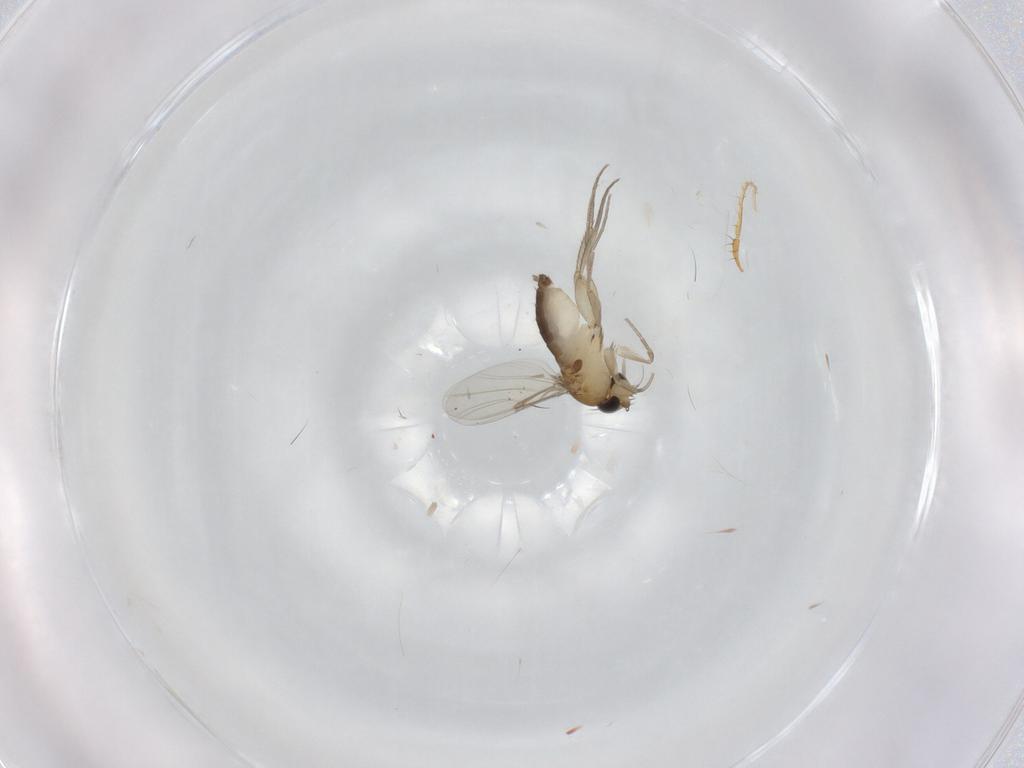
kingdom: Animalia
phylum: Arthropoda
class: Insecta
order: Diptera
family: Phoridae
